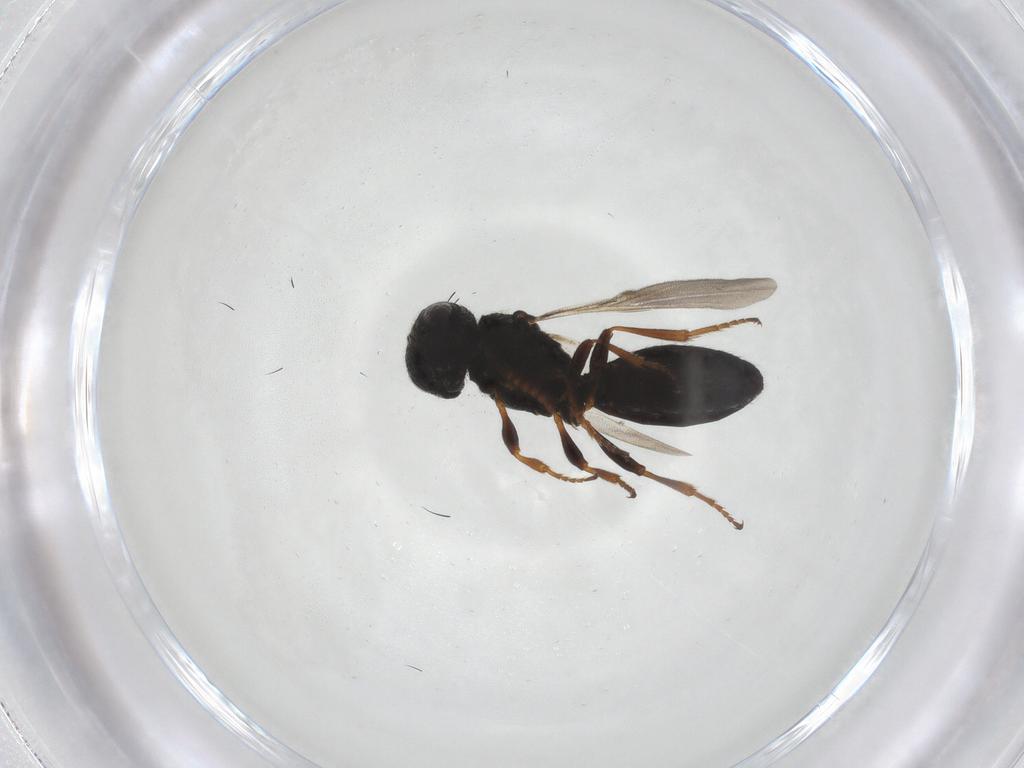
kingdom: Animalia
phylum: Arthropoda
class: Insecta
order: Hymenoptera
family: Scelionidae
